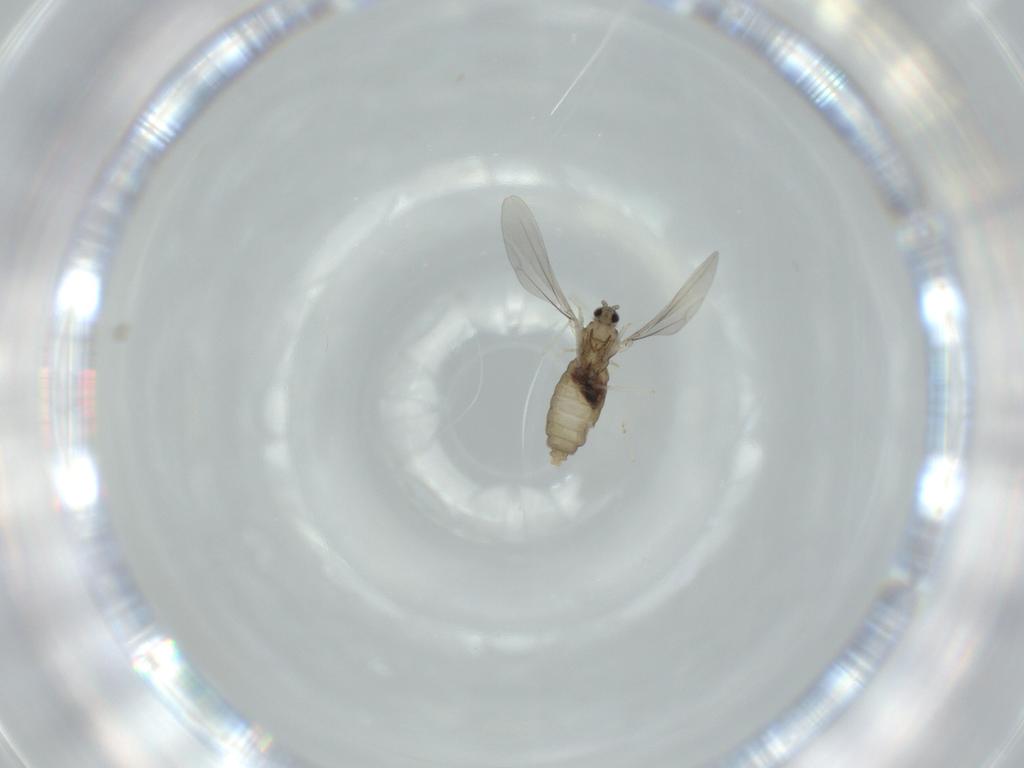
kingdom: Animalia
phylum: Arthropoda
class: Insecta
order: Diptera
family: Cecidomyiidae
